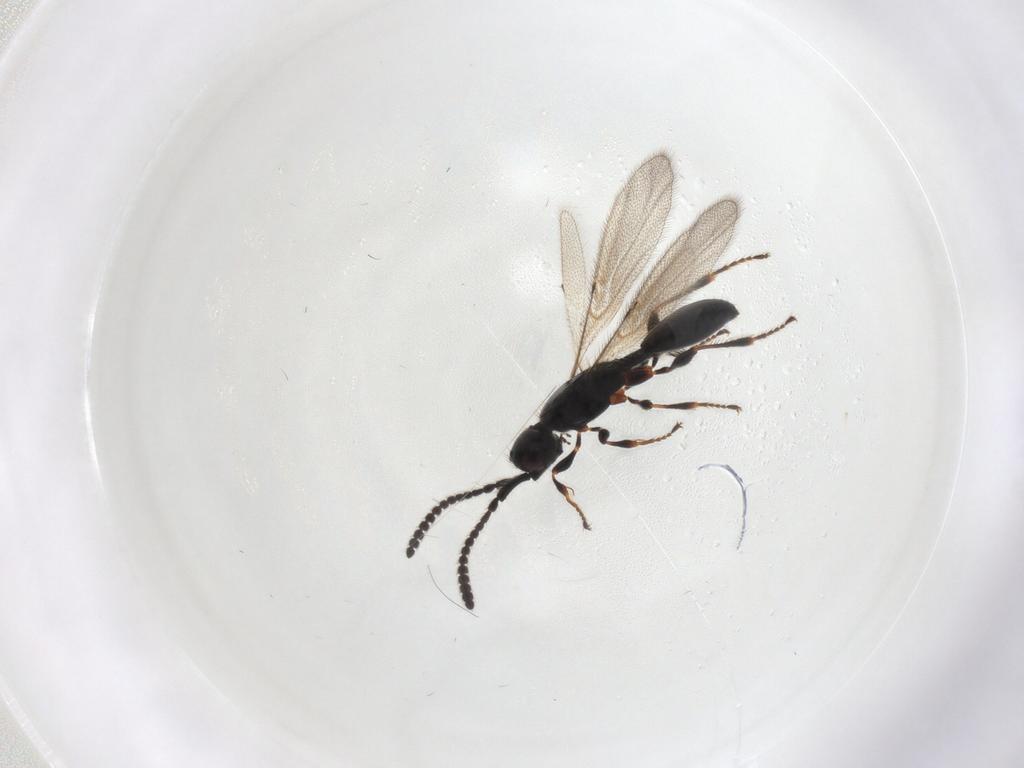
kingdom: Animalia
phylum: Arthropoda
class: Insecta
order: Hymenoptera
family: Diapriidae
